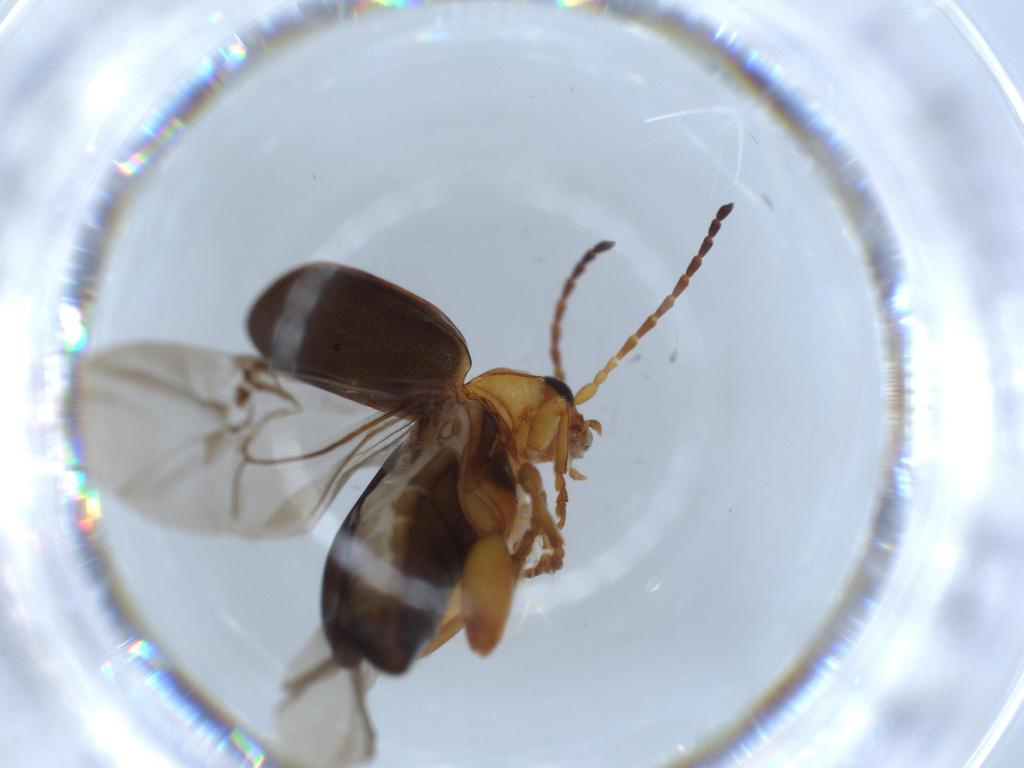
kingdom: Animalia
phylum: Arthropoda
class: Insecta
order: Coleoptera
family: Chrysomelidae
